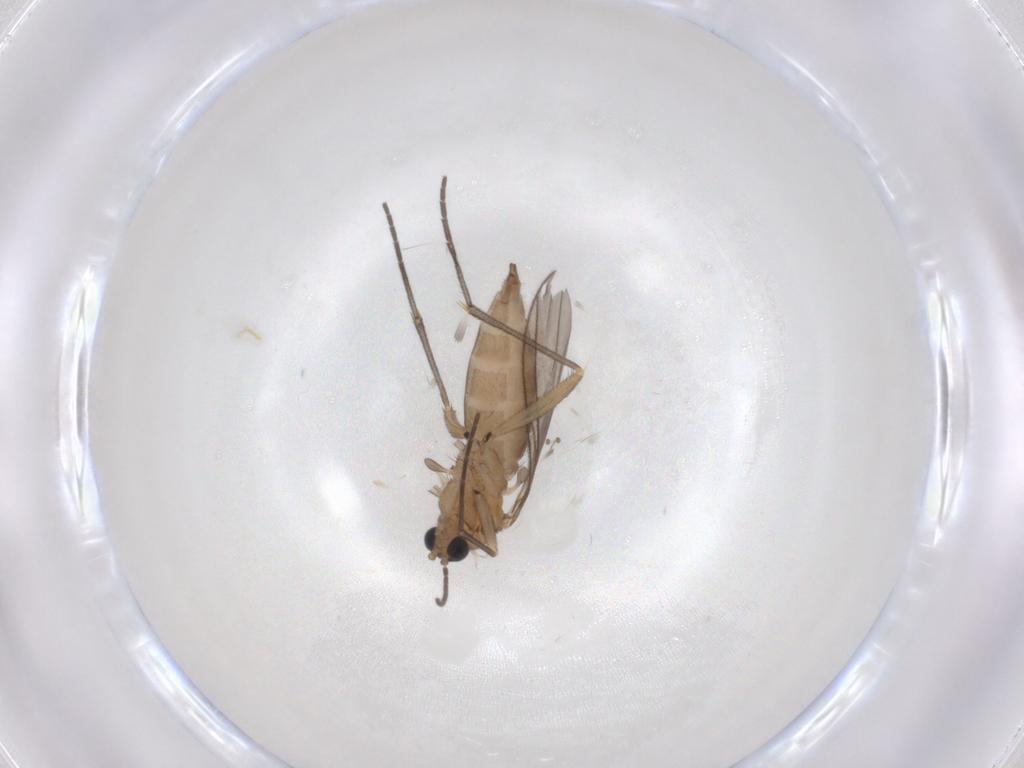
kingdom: Animalia
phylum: Arthropoda
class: Insecta
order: Diptera
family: Sciaridae
